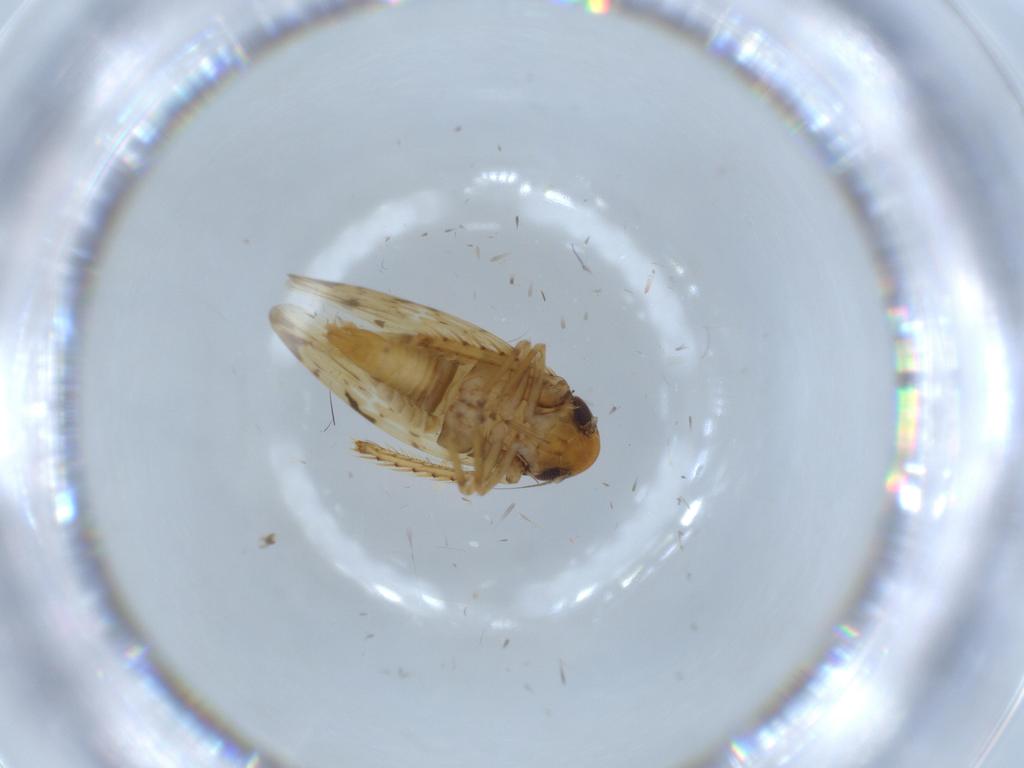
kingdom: Animalia
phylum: Arthropoda
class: Insecta
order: Hemiptera
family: Cicadellidae
